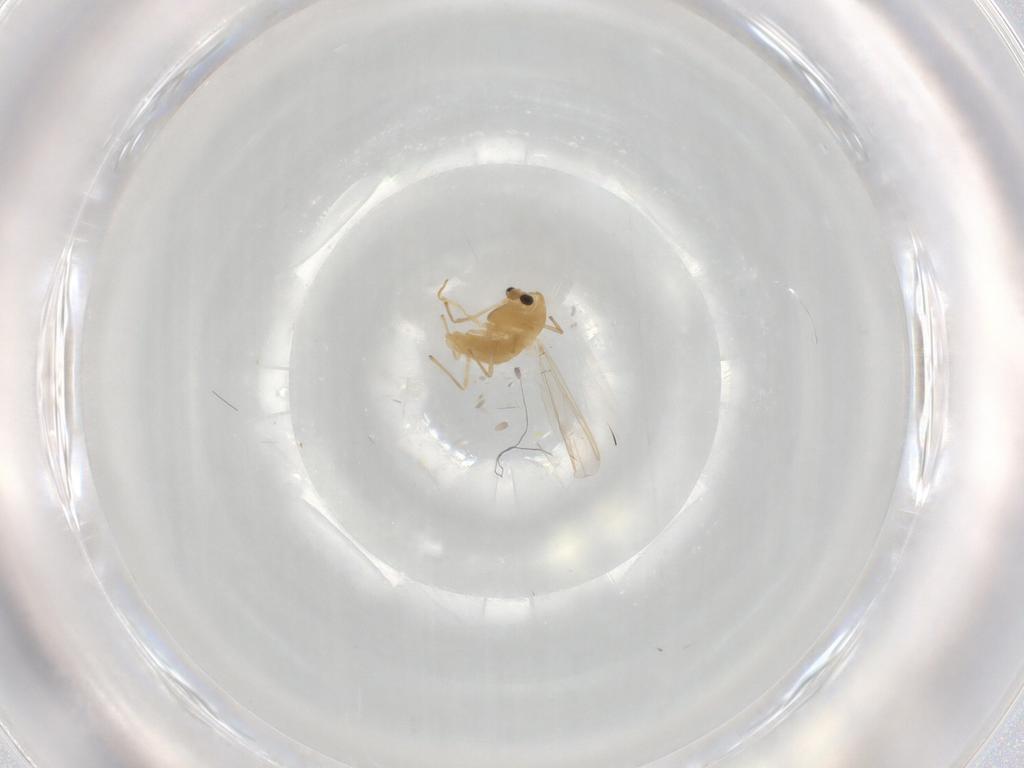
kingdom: Animalia
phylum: Arthropoda
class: Insecta
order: Diptera
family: Chironomidae
